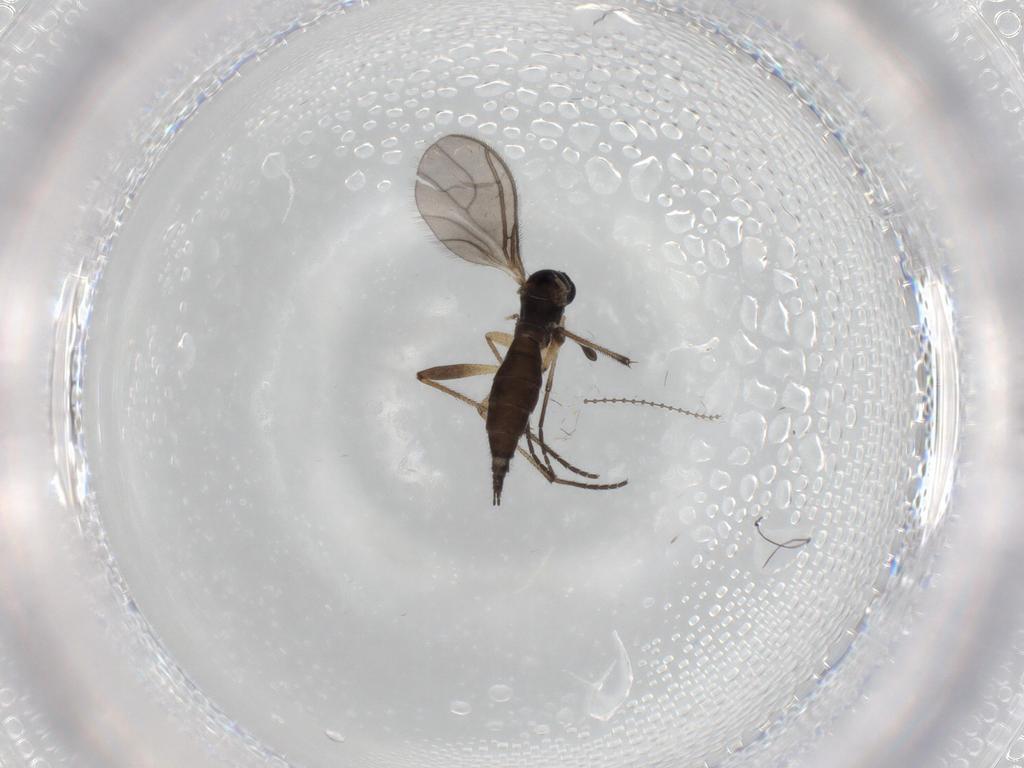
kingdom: Animalia
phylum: Arthropoda
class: Insecta
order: Diptera
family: Sciaridae
